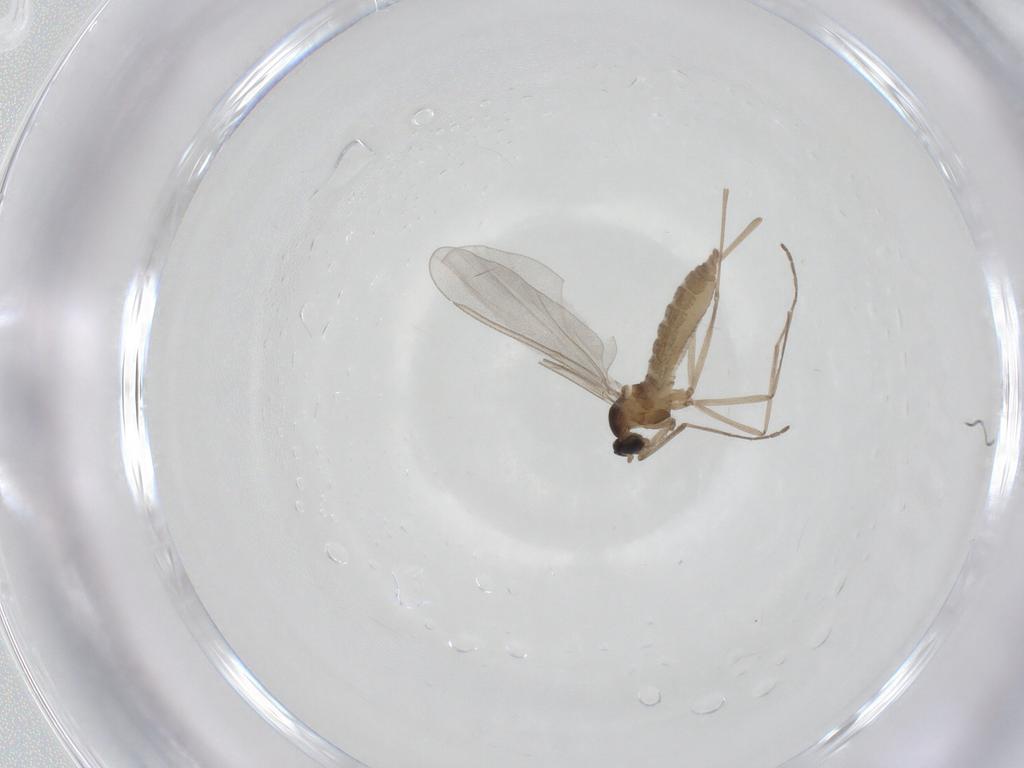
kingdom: Animalia
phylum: Arthropoda
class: Insecta
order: Diptera
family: Cecidomyiidae
